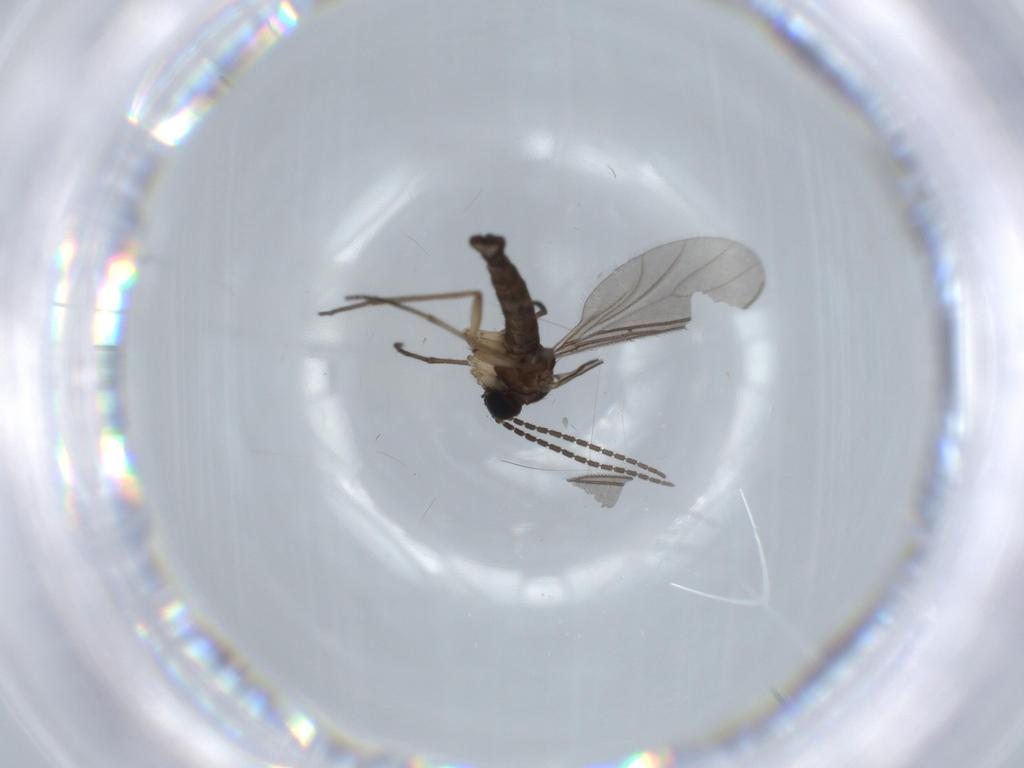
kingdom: Animalia
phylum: Arthropoda
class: Insecta
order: Diptera
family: Sciaridae
